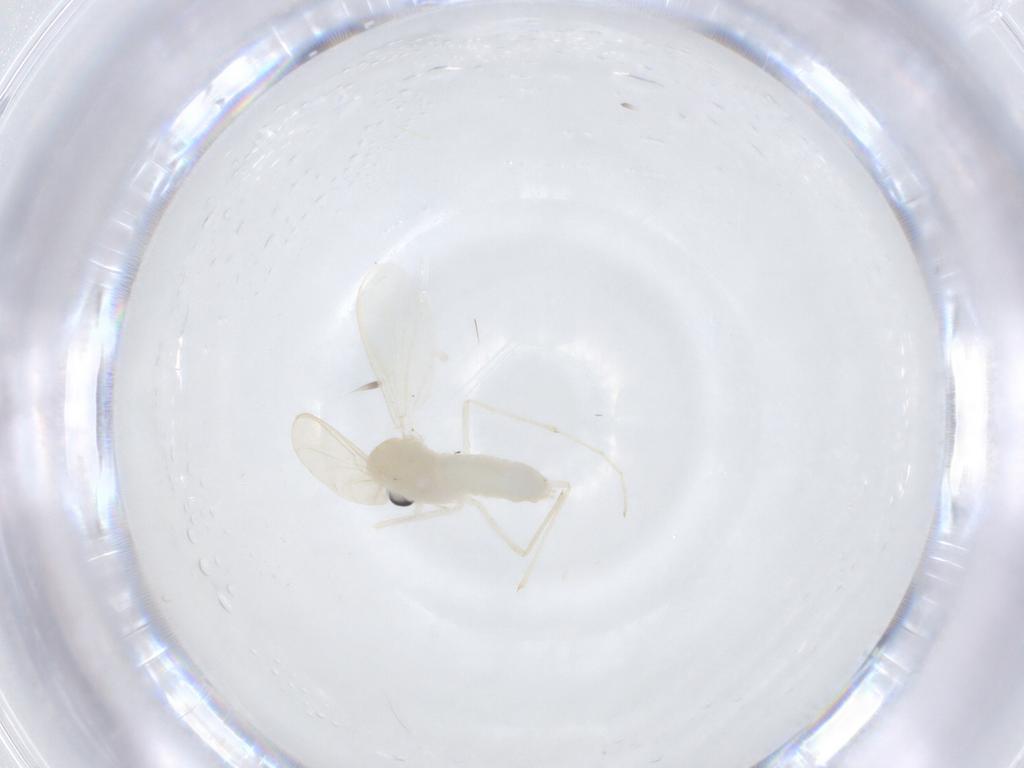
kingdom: Animalia
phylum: Arthropoda
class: Insecta
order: Diptera
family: Chironomidae
